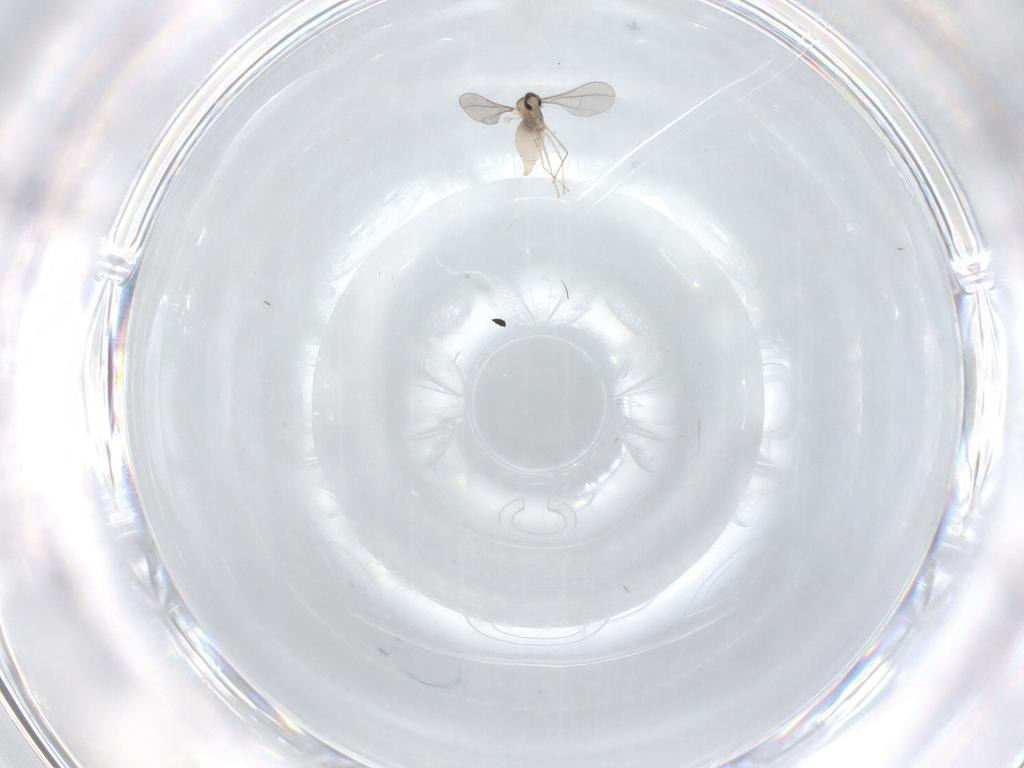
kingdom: Animalia
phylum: Arthropoda
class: Insecta
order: Diptera
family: Cecidomyiidae
